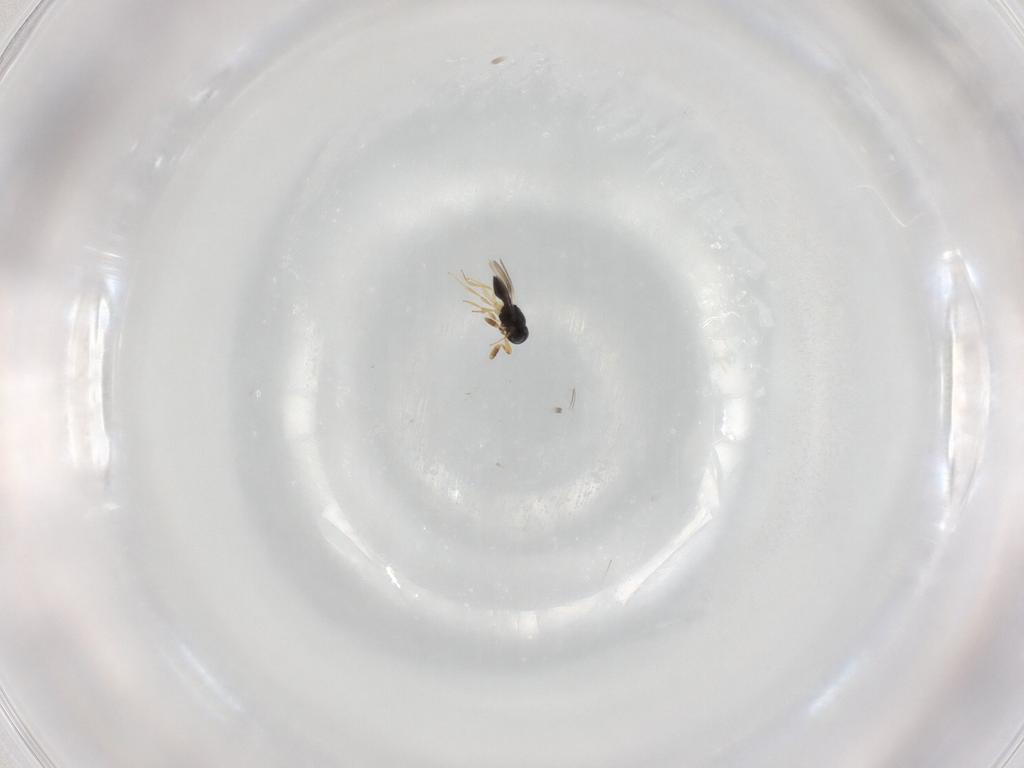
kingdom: Animalia
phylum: Arthropoda
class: Insecta
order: Hymenoptera
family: Scelionidae
